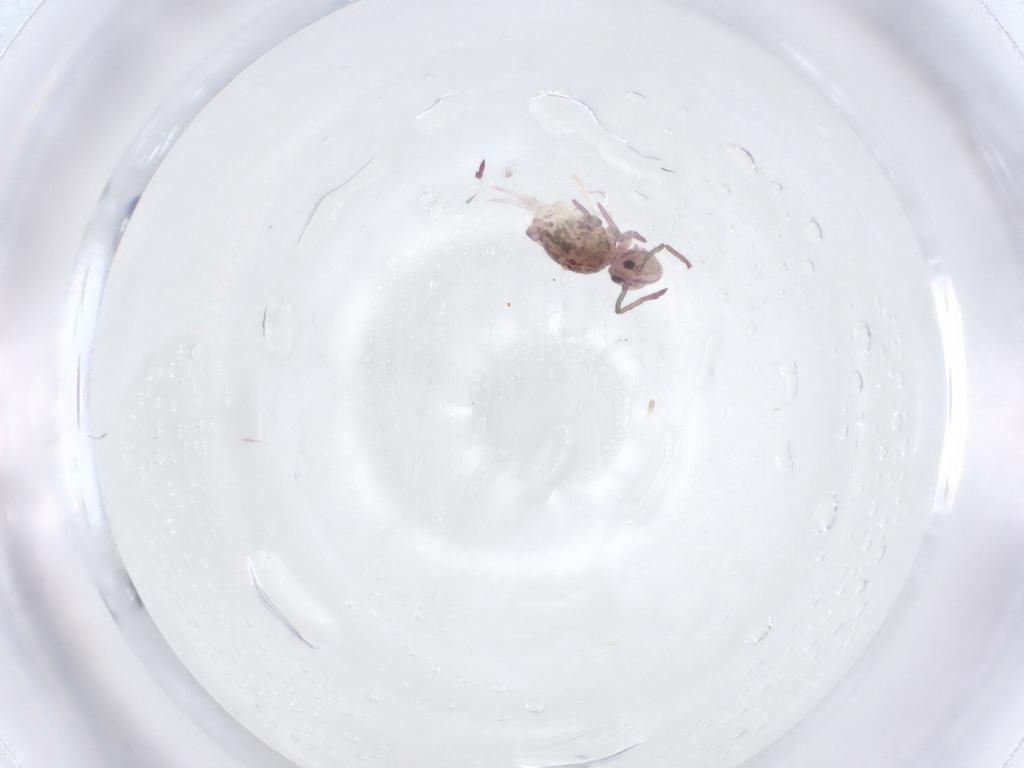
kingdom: Animalia
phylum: Arthropoda
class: Collembola
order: Symphypleona
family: Dicyrtomidae
